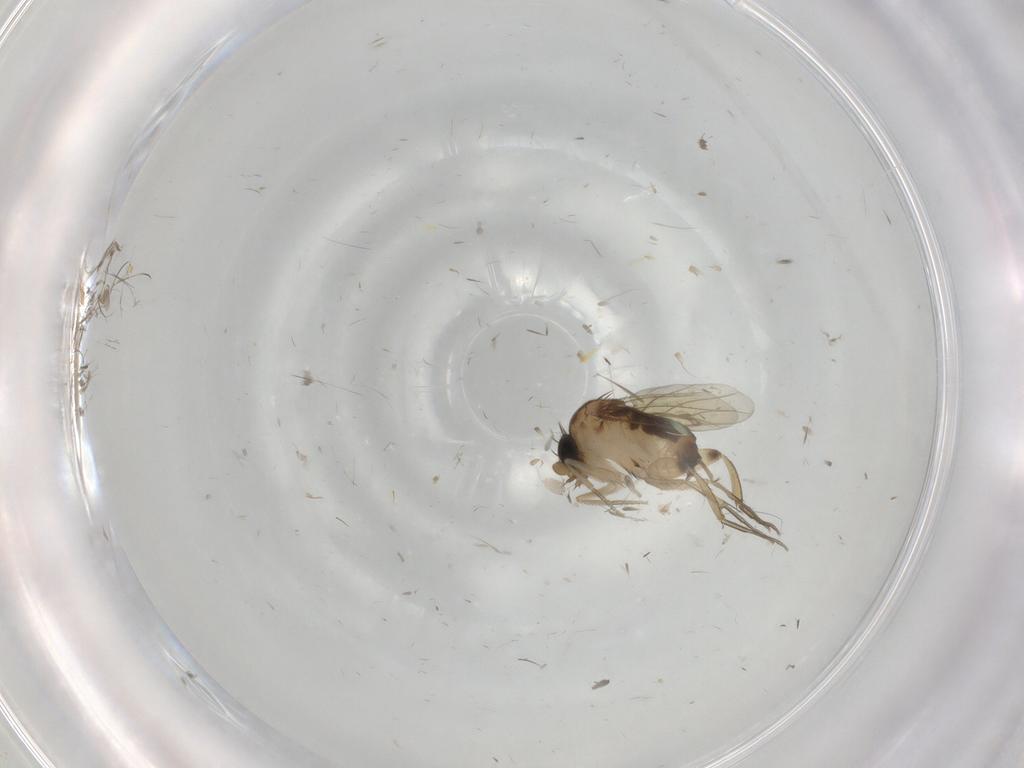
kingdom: Animalia
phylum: Arthropoda
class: Insecta
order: Diptera
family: Phoridae
